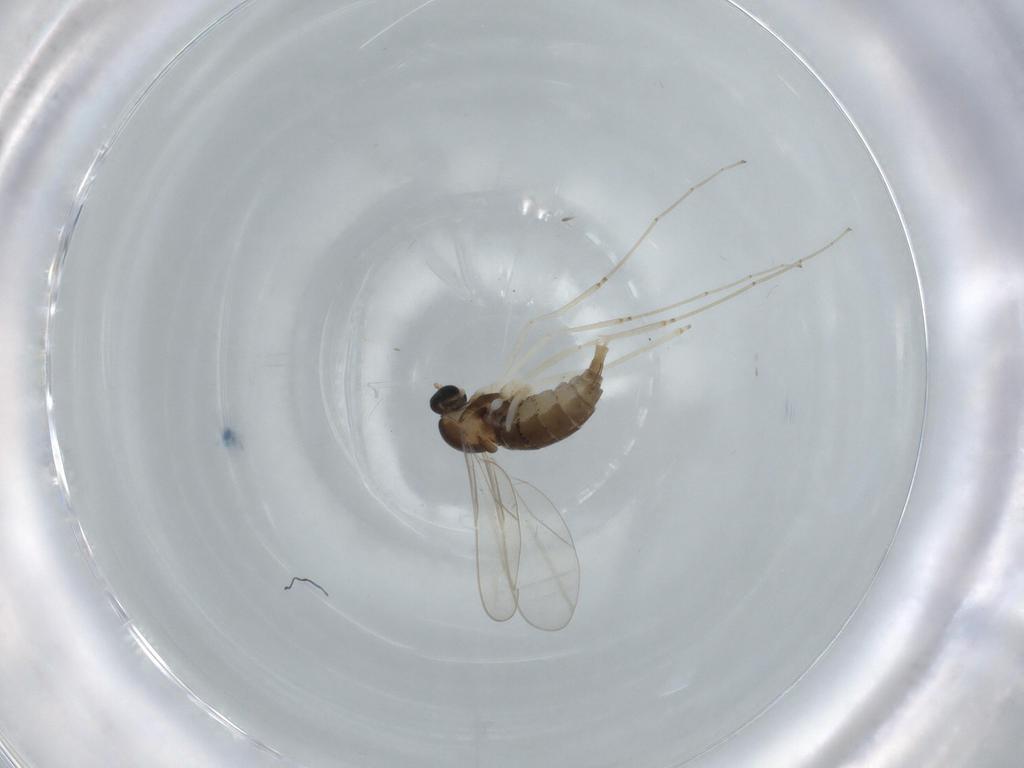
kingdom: Animalia
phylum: Arthropoda
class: Insecta
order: Diptera
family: Cecidomyiidae
